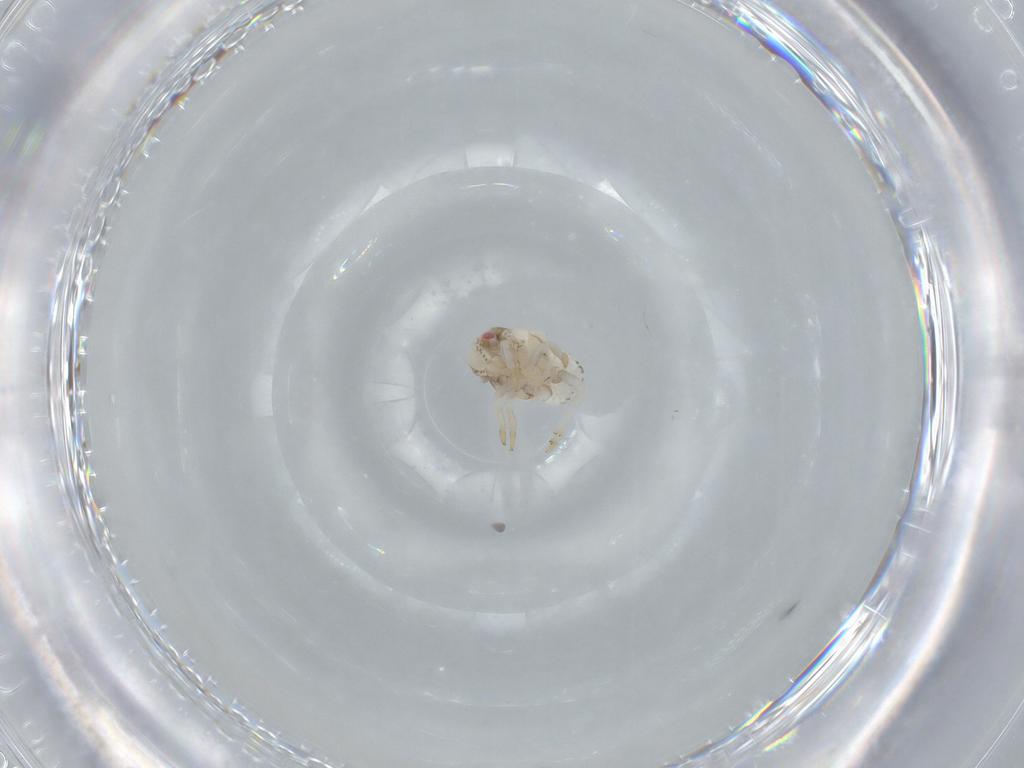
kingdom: Animalia
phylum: Arthropoda
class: Insecta
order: Hemiptera
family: Acanaloniidae
